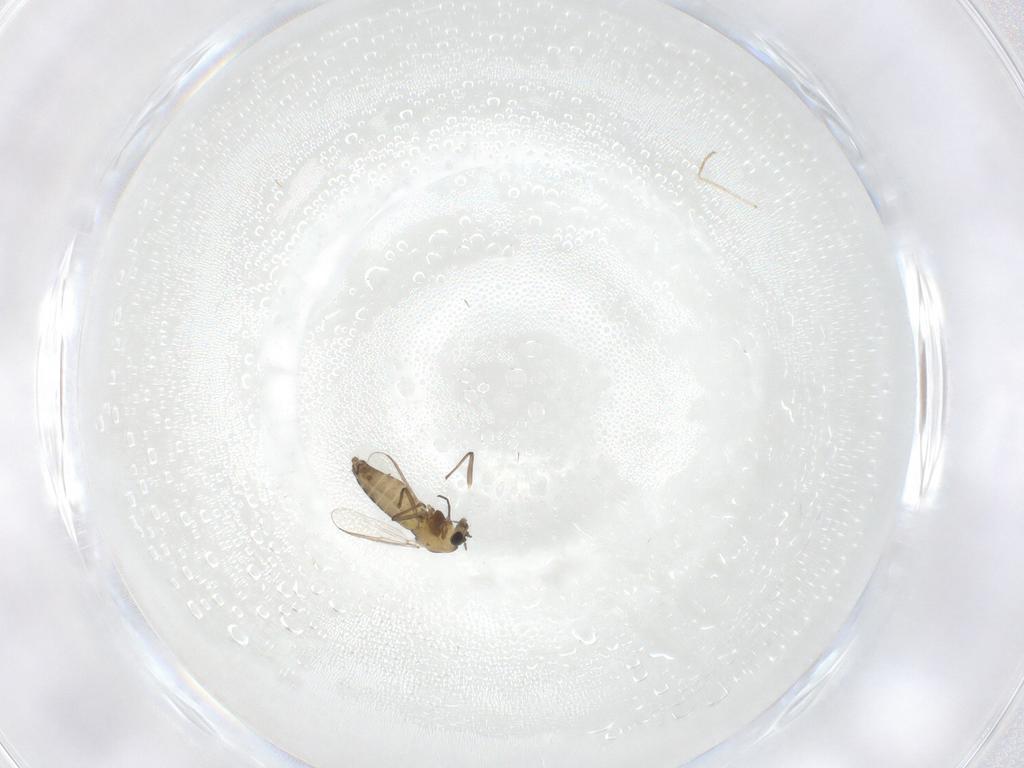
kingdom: Animalia
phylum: Arthropoda
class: Insecta
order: Diptera
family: Chironomidae
